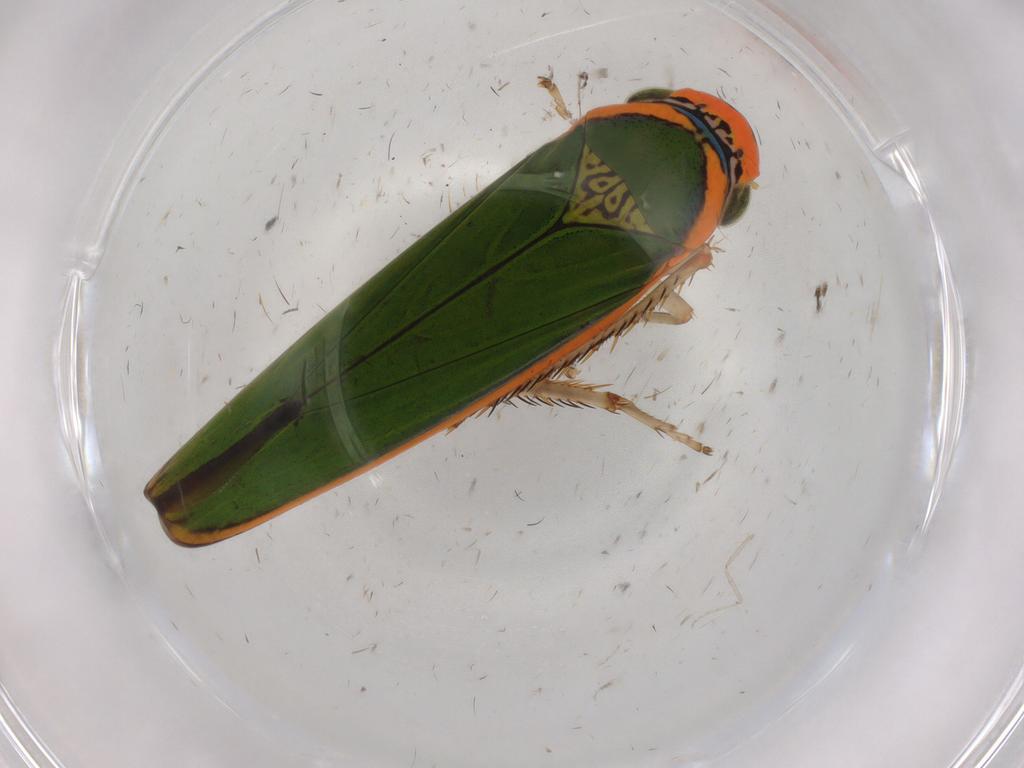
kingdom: Animalia
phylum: Arthropoda
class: Insecta
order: Hemiptera
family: Cicadellidae
